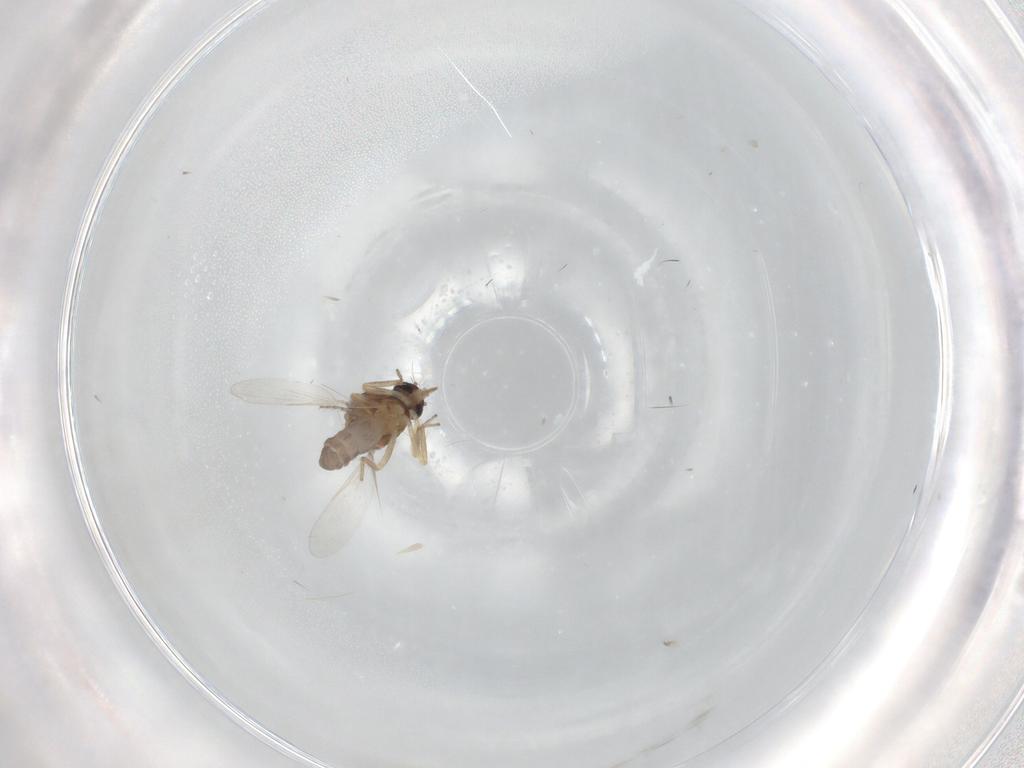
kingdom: Animalia
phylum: Arthropoda
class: Insecta
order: Diptera
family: Ceratopogonidae
